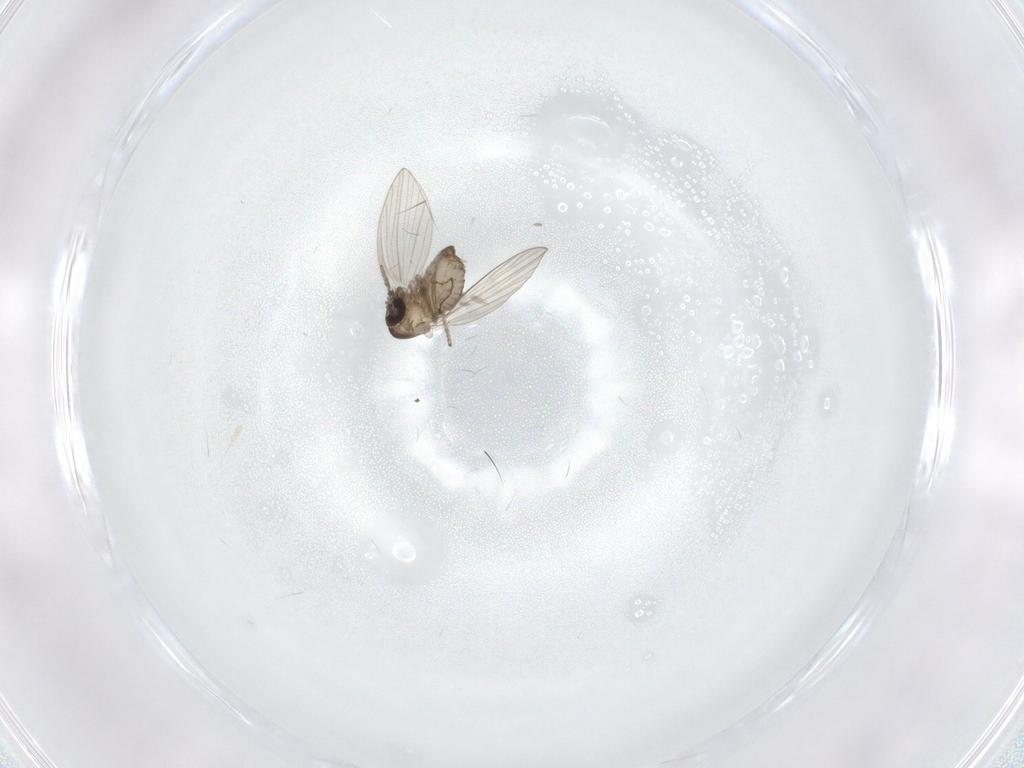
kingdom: Animalia
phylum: Arthropoda
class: Insecta
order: Diptera
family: Psychodidae
